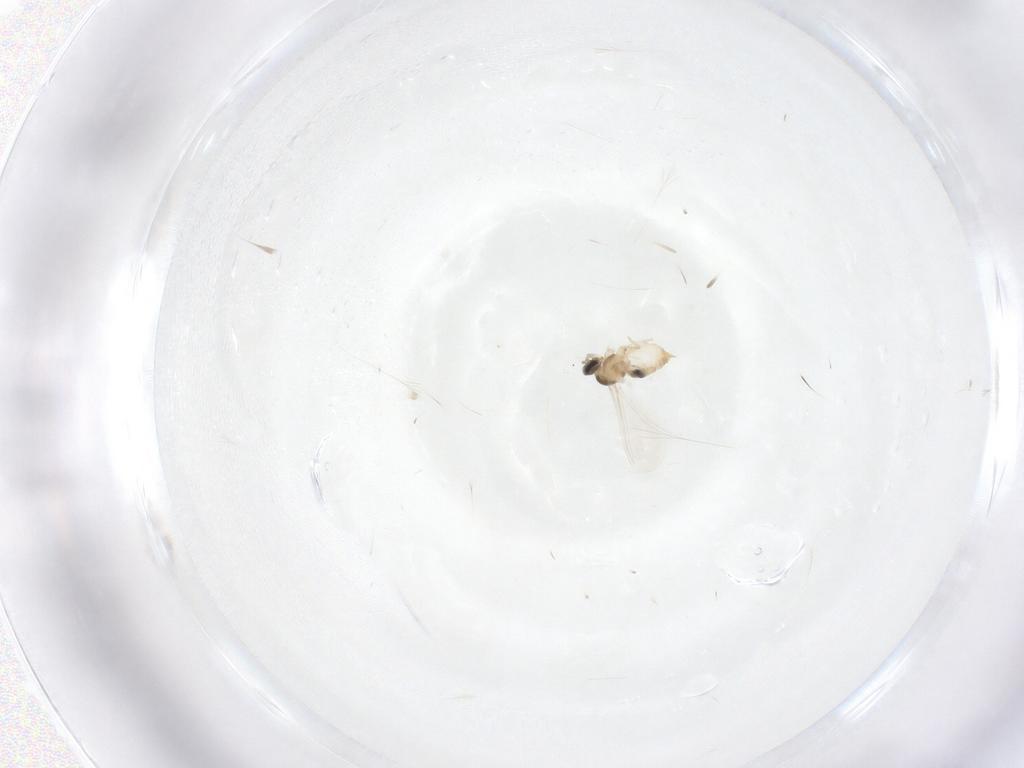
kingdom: Animalia
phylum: Arthropoda
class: Insecta
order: Diptera
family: Cecidomyiidae
